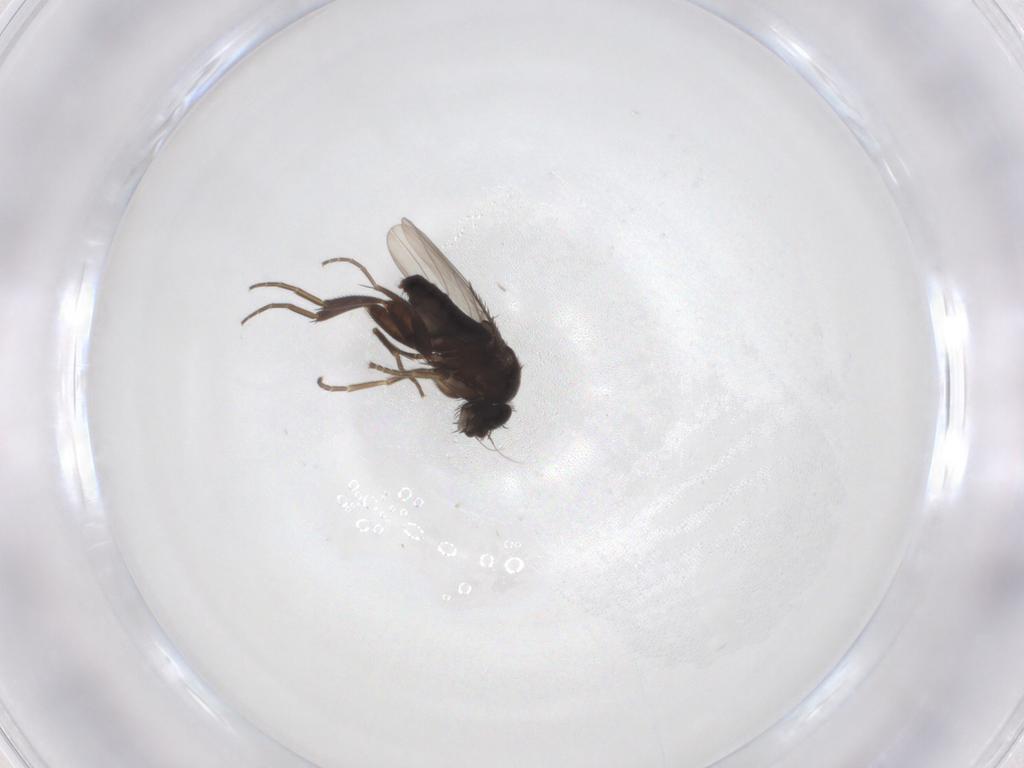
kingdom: Animalia
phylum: Arthropoda
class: Insecta
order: Diptera
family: Phoridae
